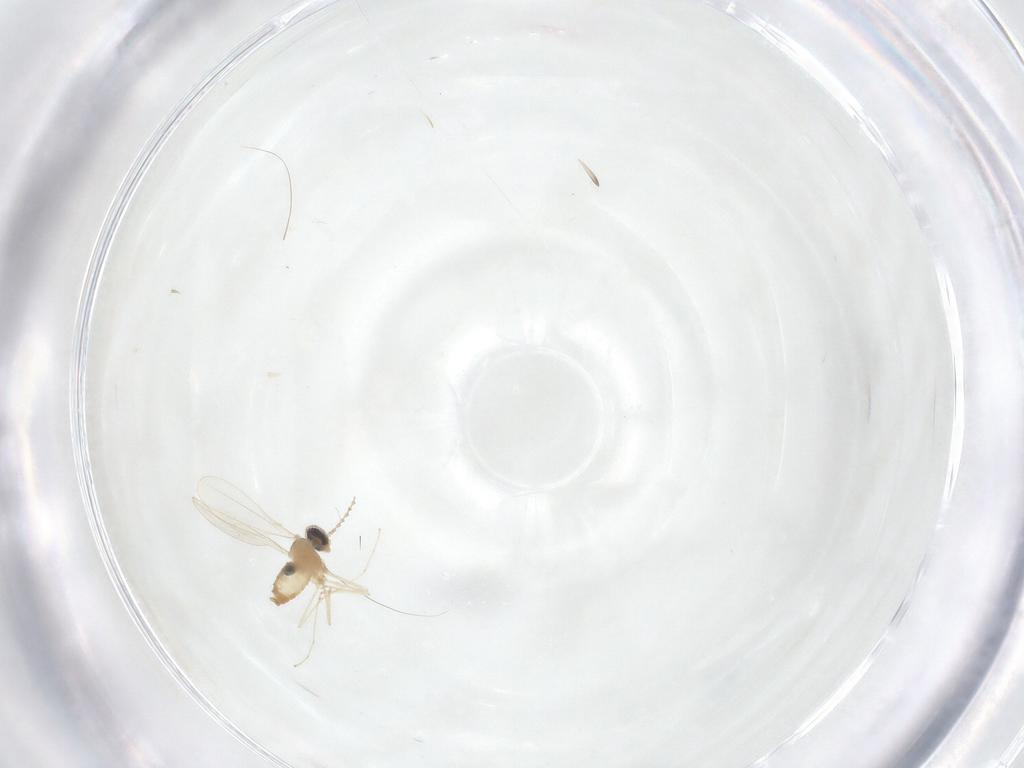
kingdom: Animalia
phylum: Arthropoda
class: Insecta
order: Diptera
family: Cecidomyiidae
